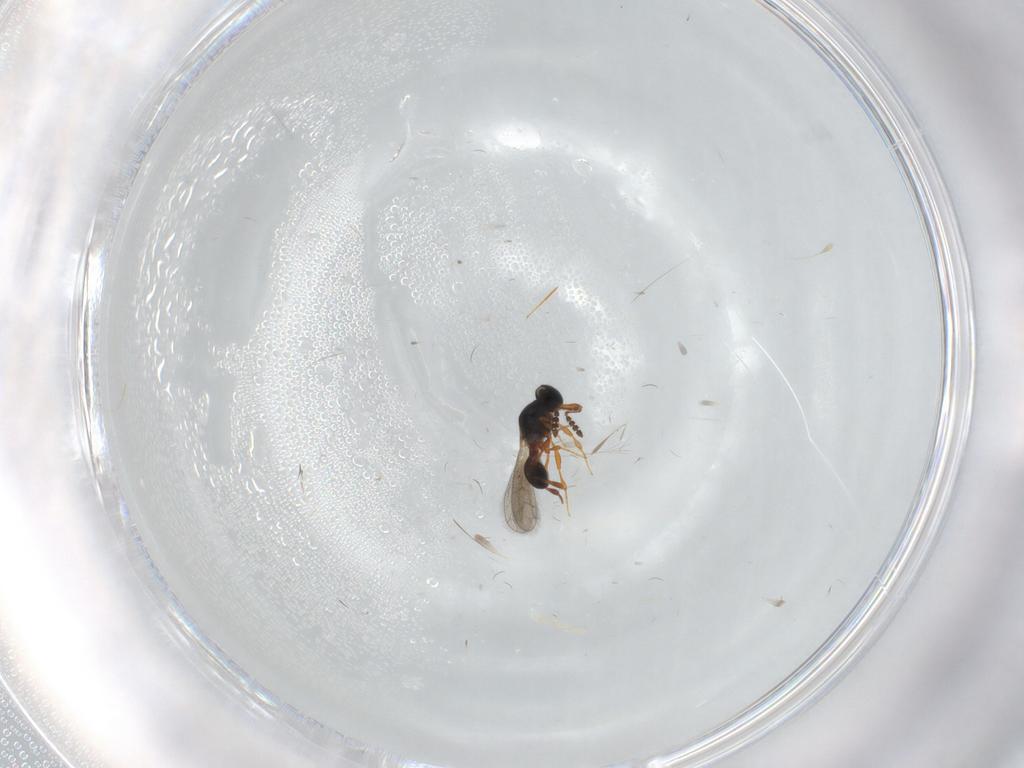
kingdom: Animalia
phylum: Arthropoda
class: Insecta
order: Hymenoptera
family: Platygastridae
